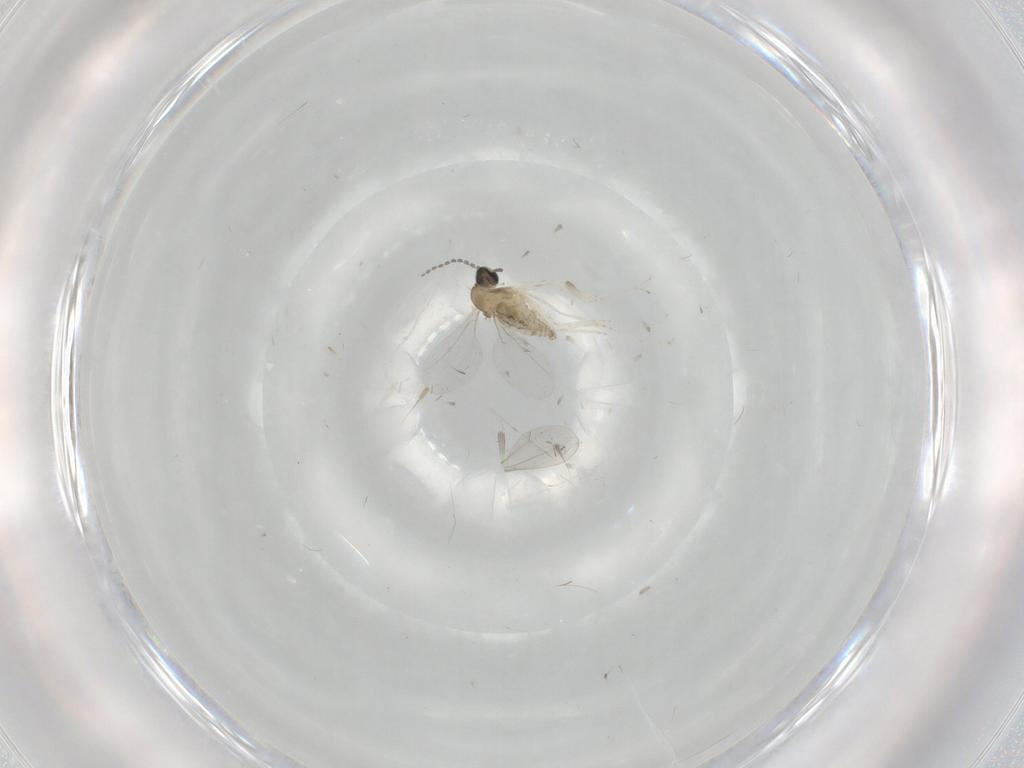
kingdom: Animalia
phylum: Arthropoda
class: Insecta
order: Diptera
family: Cecidomyiidae
